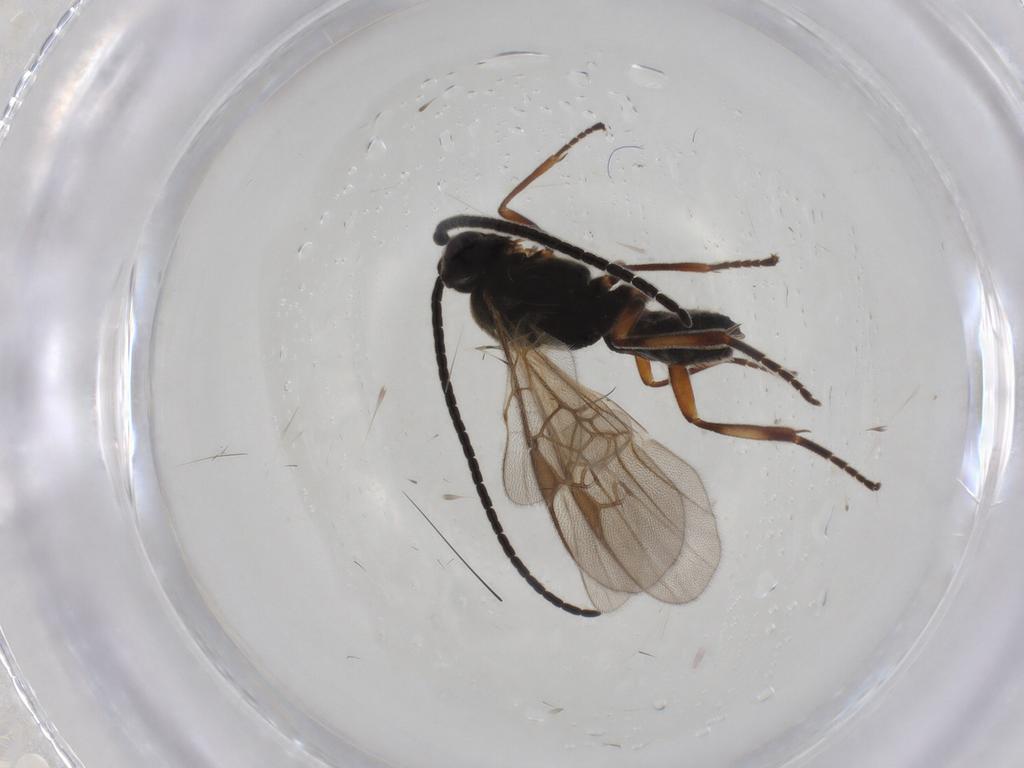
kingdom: Animalia
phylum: Arthropoda
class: Insecta
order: Hymenoptera
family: Braconidae
